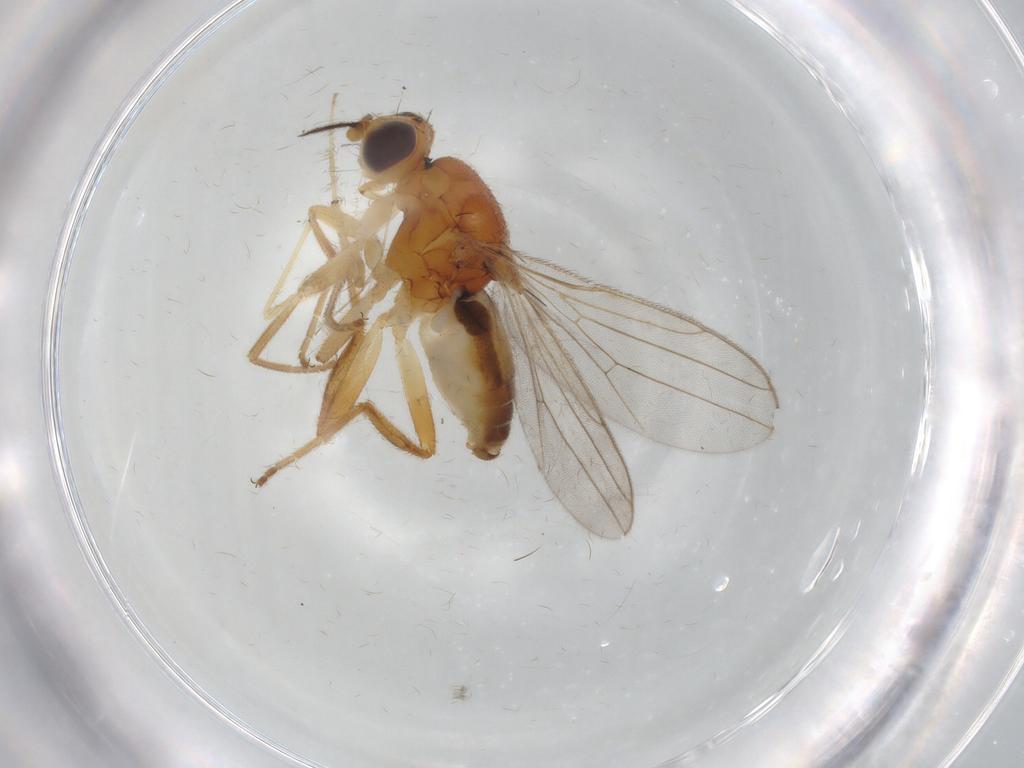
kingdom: Animalia
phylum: Arthropoda
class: Insecta
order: Diptera
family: Chloropidae
